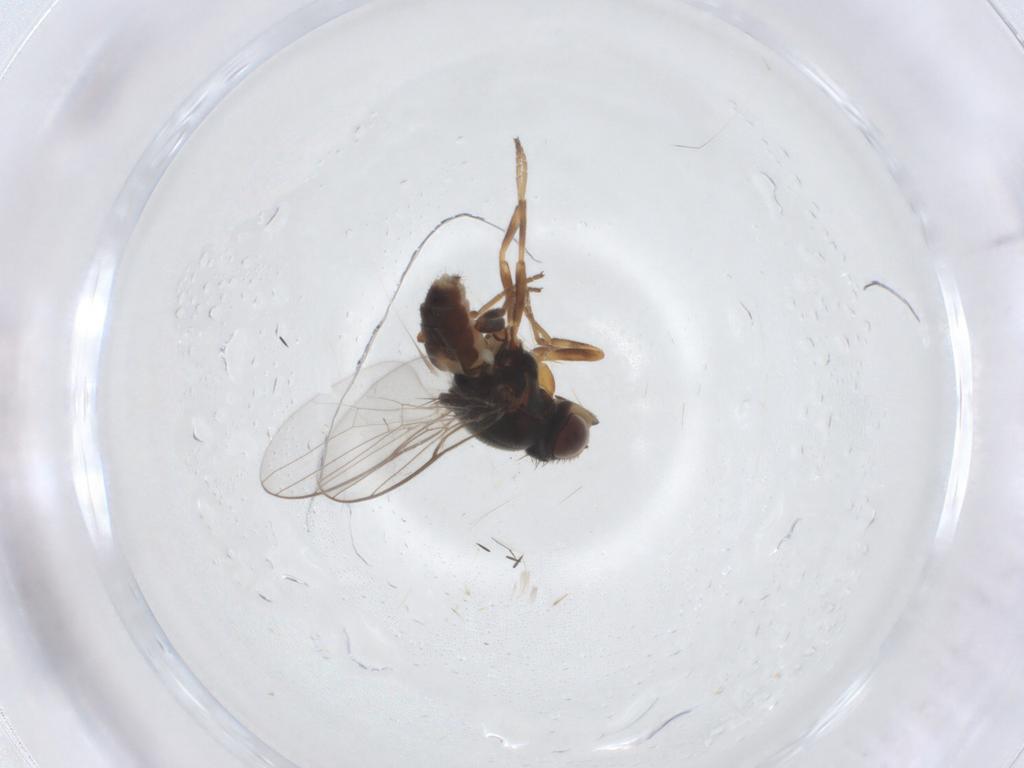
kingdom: Animalia
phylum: Arthropoda
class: Insecta
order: Diptera
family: Chloropidae
